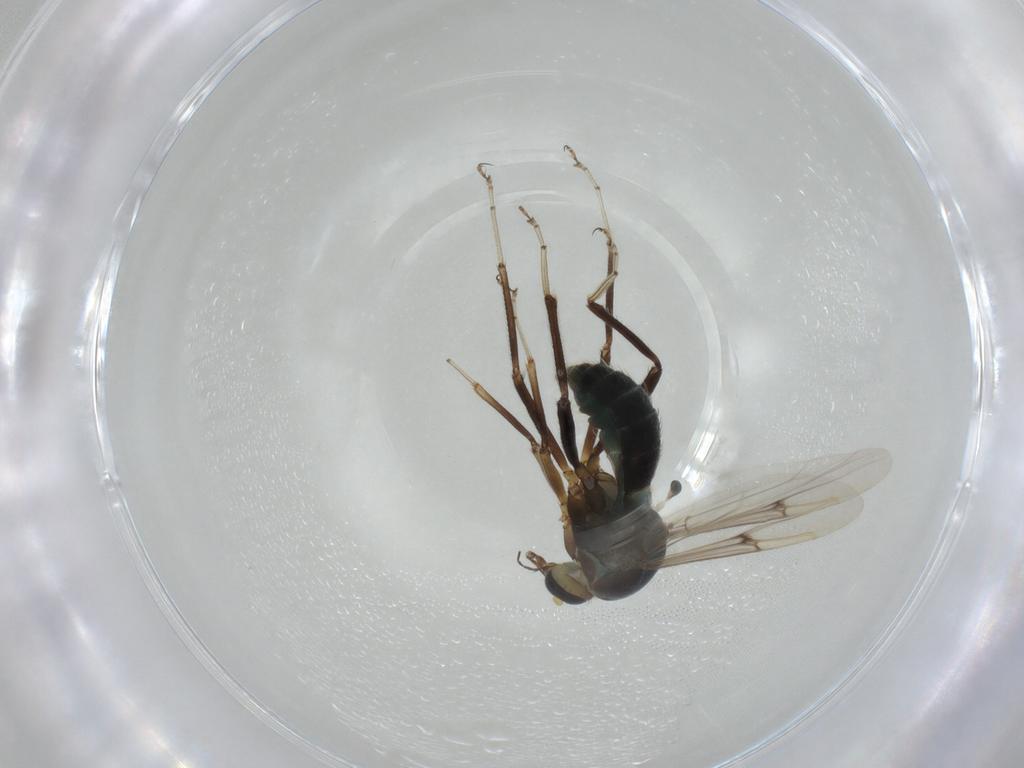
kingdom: Animalia
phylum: Arthropoda
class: Insecta
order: Diptera
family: Ceratopogonidae
